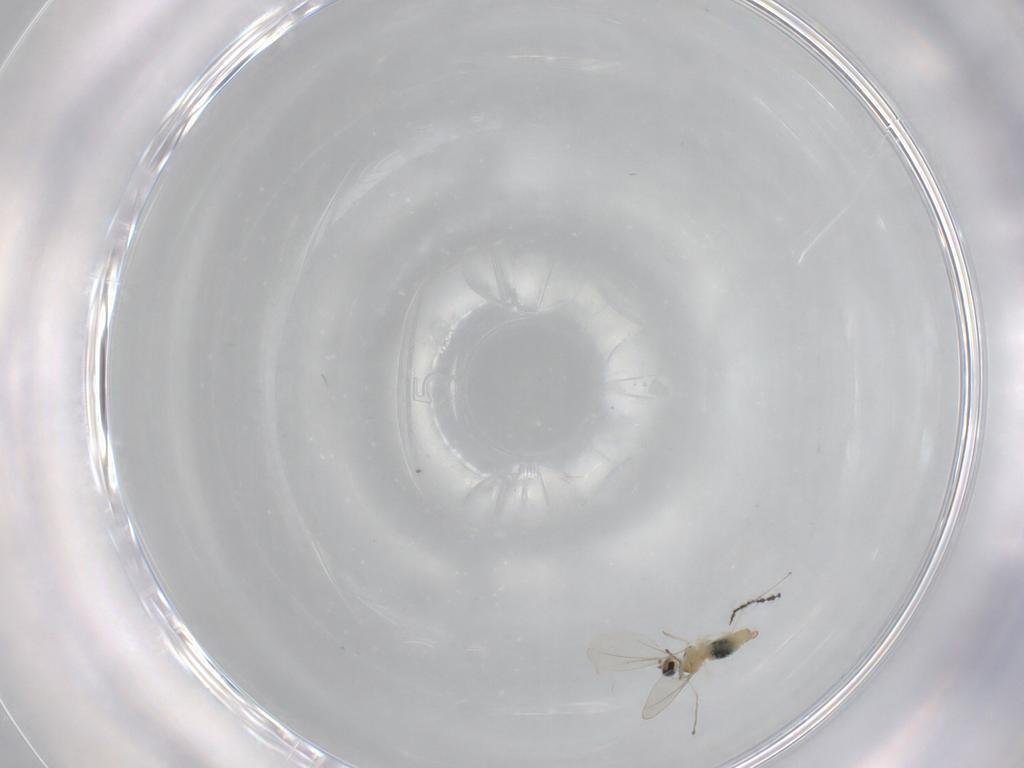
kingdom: Animalia
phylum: Arthropoda
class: Insecta
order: Diptera
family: Cecidomyiidae
